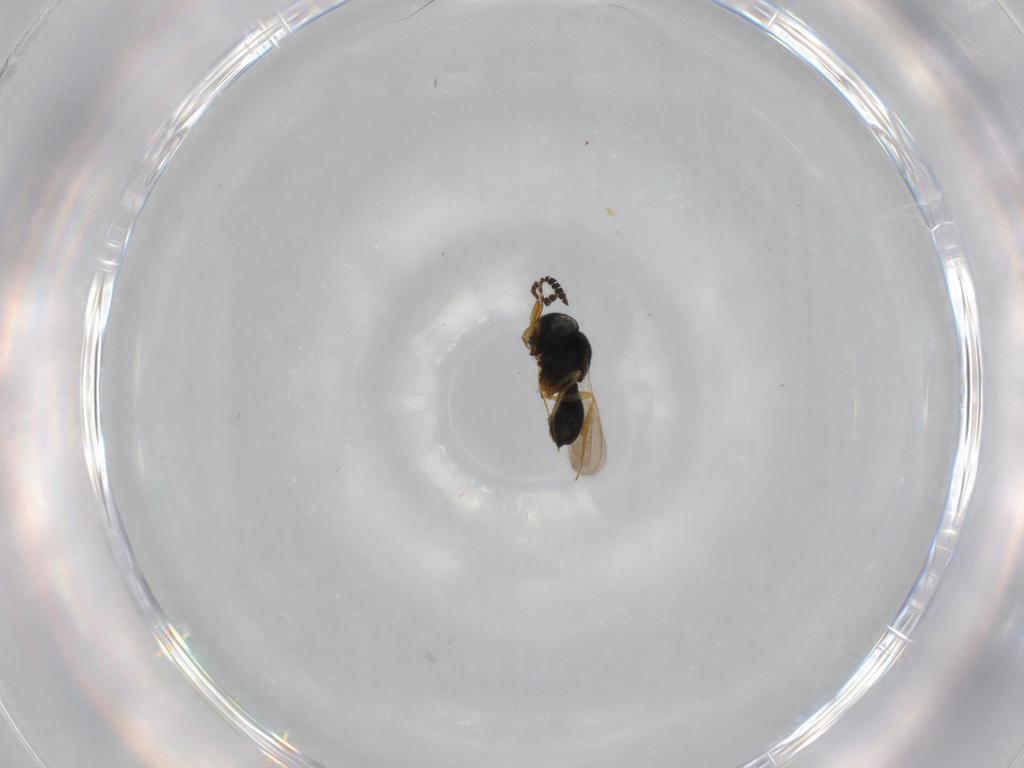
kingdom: Animalia
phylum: Arthropoda
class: Insecta
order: Hymenoptera
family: Scelionidae
